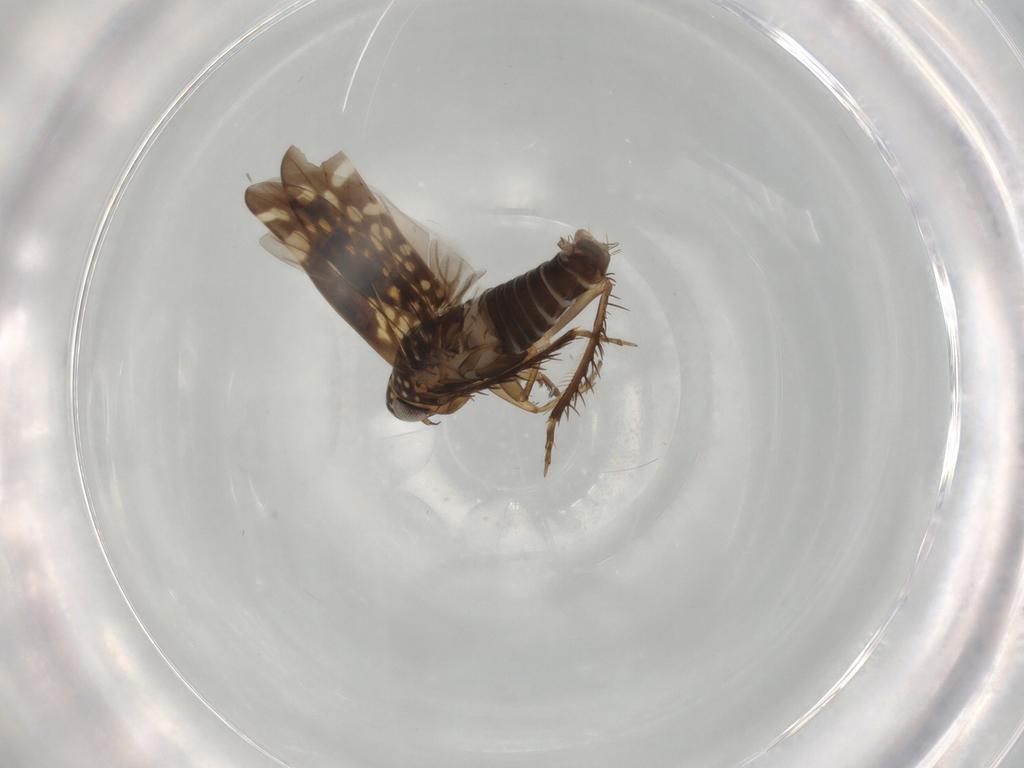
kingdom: Animalia
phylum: Arthropoda
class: Insecta
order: Hemiptera
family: Cicadellidae
